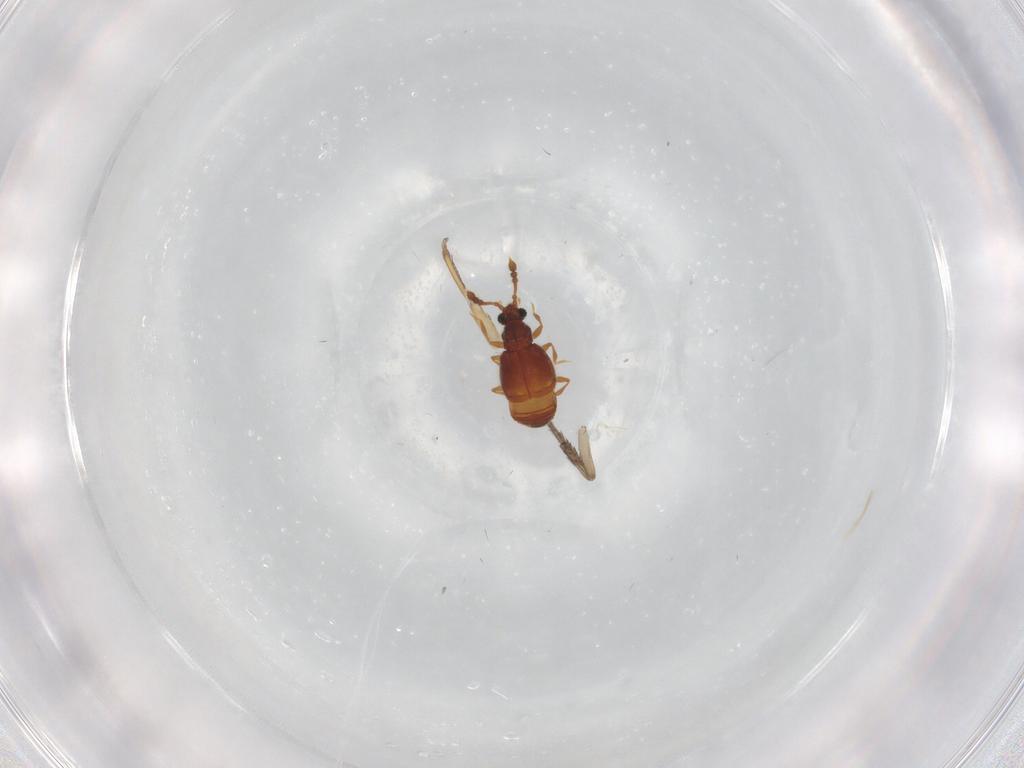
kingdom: Animalia
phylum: Arthropoda
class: Insecta
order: Coleoptera
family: Staphylinidae
